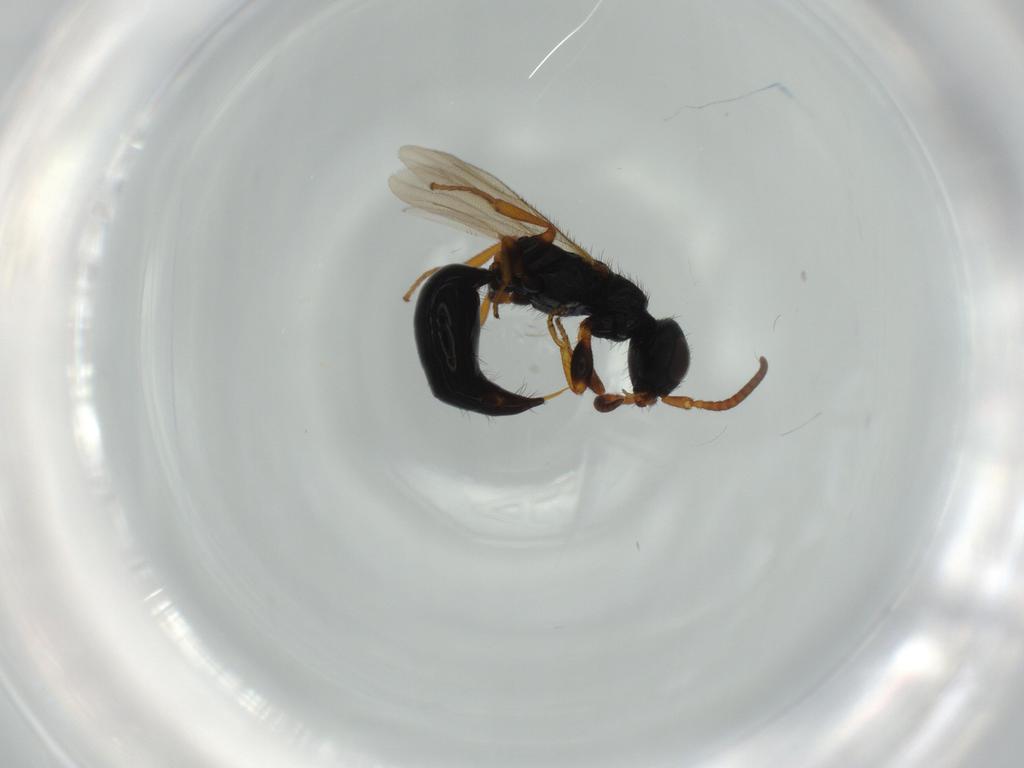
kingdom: Animalia
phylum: Arthropoda
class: Insecta
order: Hymenoptera
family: Bethylidae
